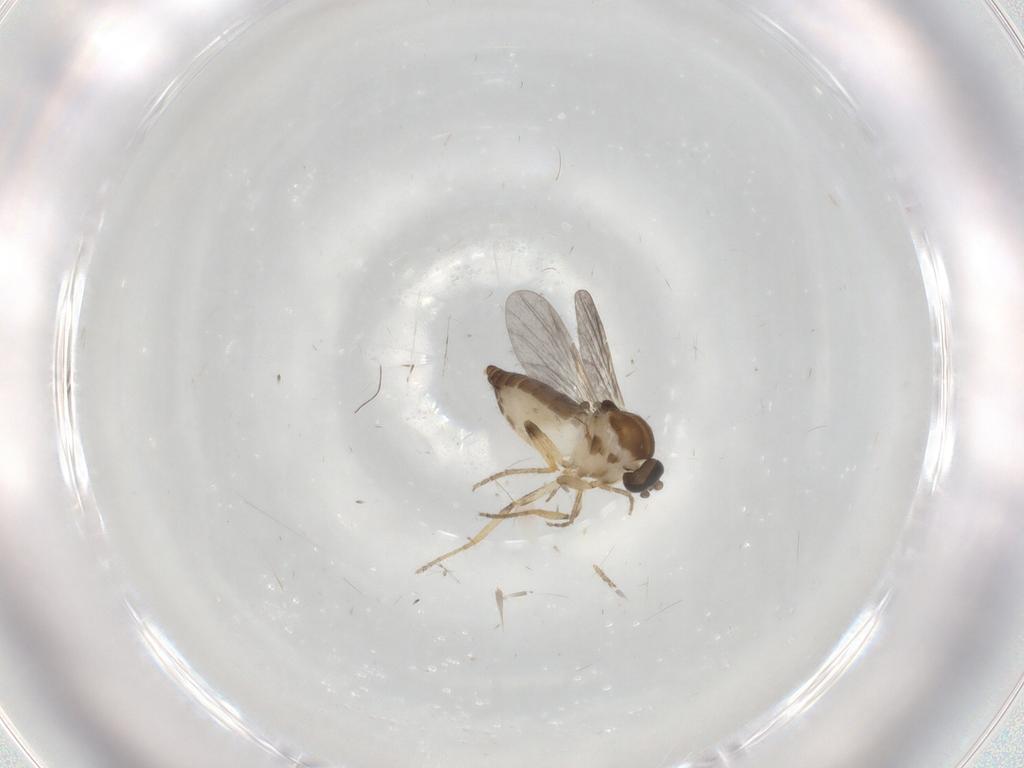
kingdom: Animalia
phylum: Arthropoda
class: Insecta
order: Diptera
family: Ceratopogonidae
